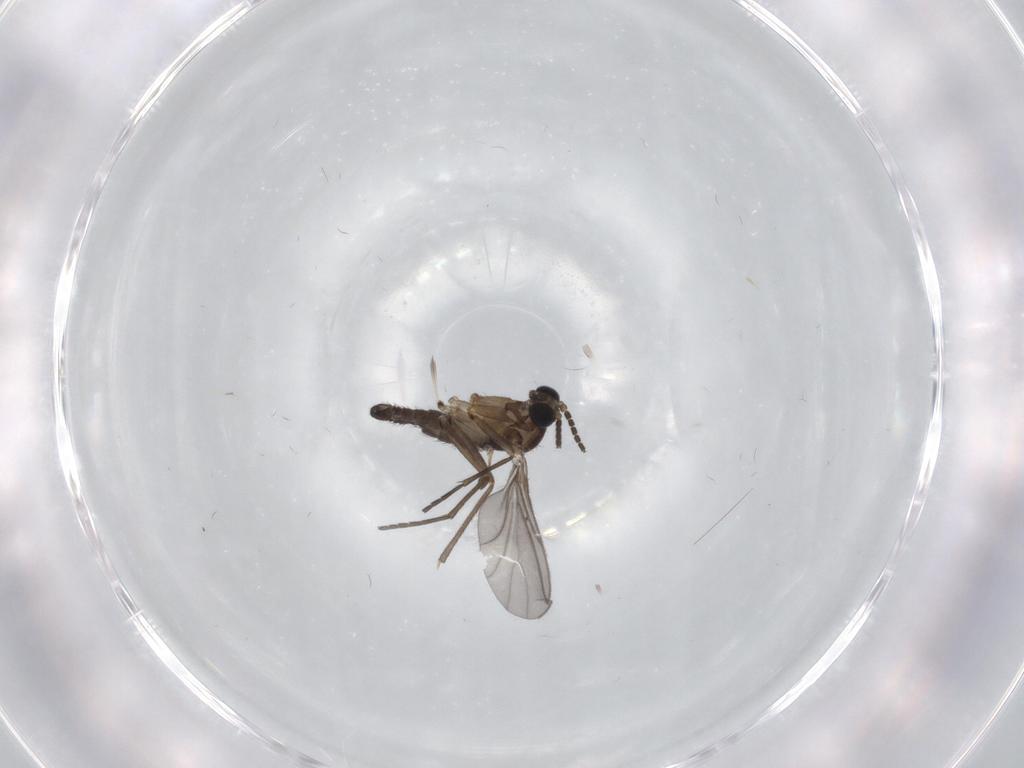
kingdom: Animalia
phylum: Arthropoda
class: Insecta
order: Diptera
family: Sciaridae
